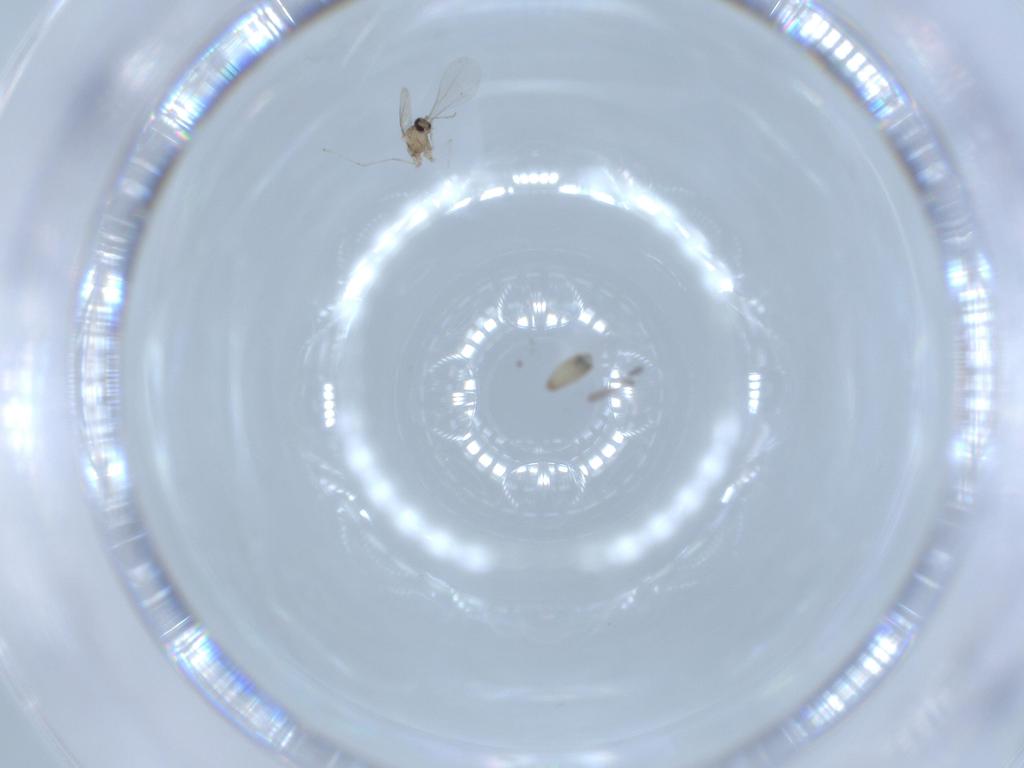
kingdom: Animalia
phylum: Arthropoda
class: Insecta
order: Diptera
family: Cecidomyiidae
